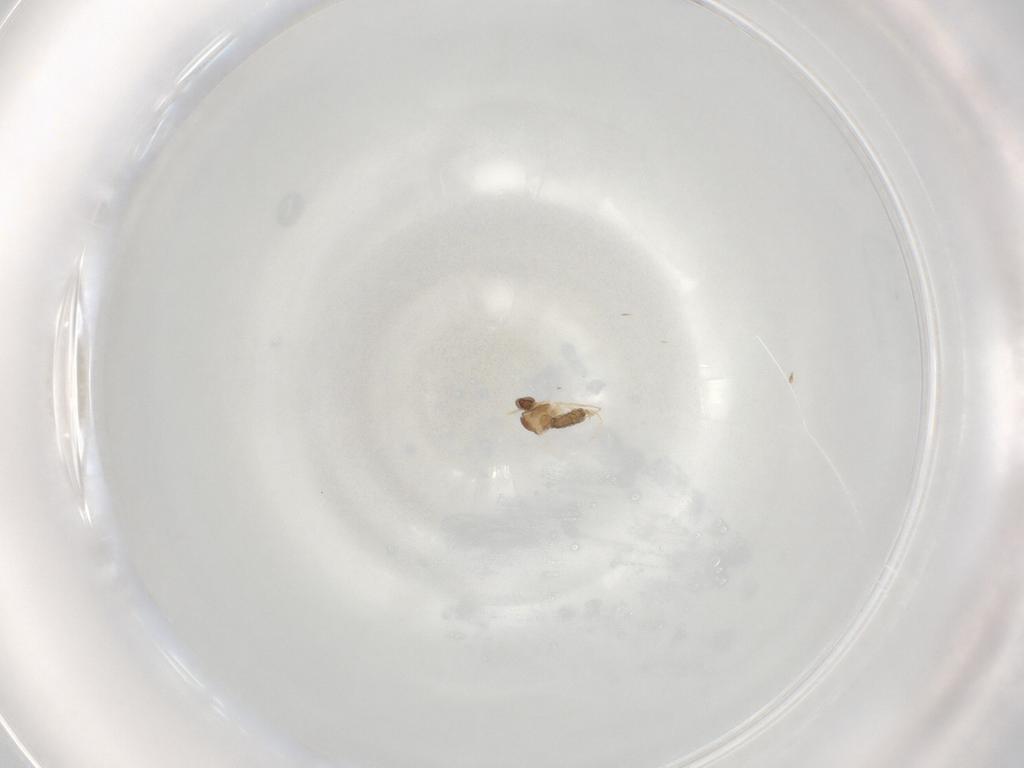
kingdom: Animalia
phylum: Arthropoda
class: Insecta
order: Diptera
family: Cecidomyiidae
